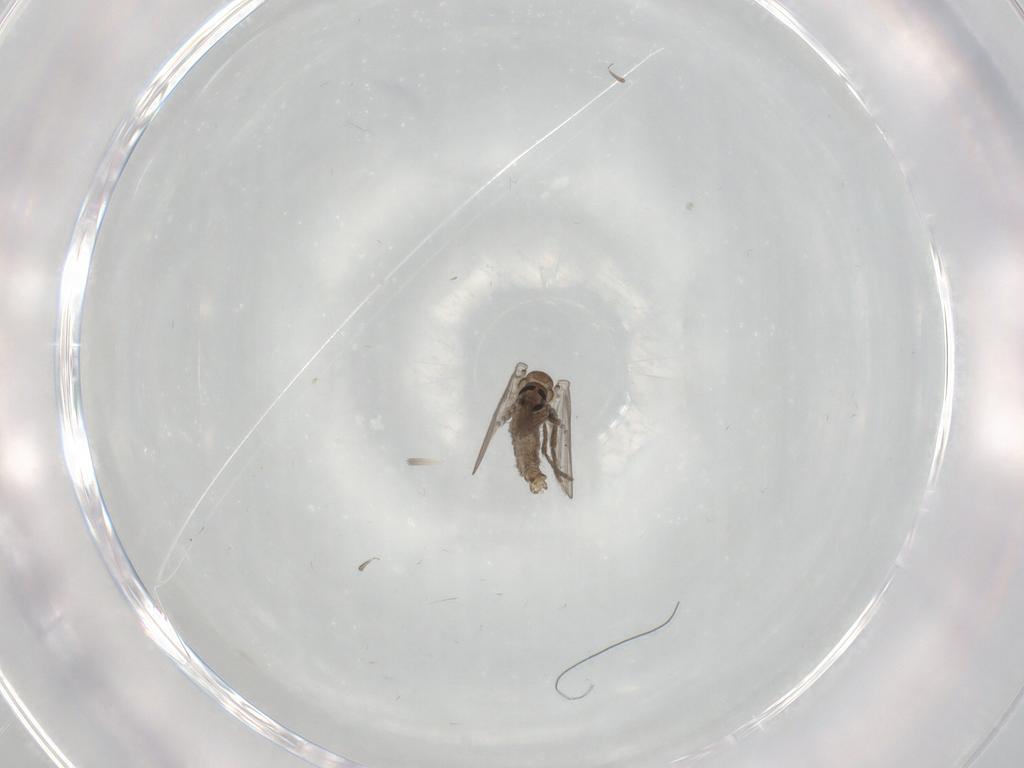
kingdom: Animalia
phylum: Arthropoda
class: Insecta
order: Diptera
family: Psychodidae
